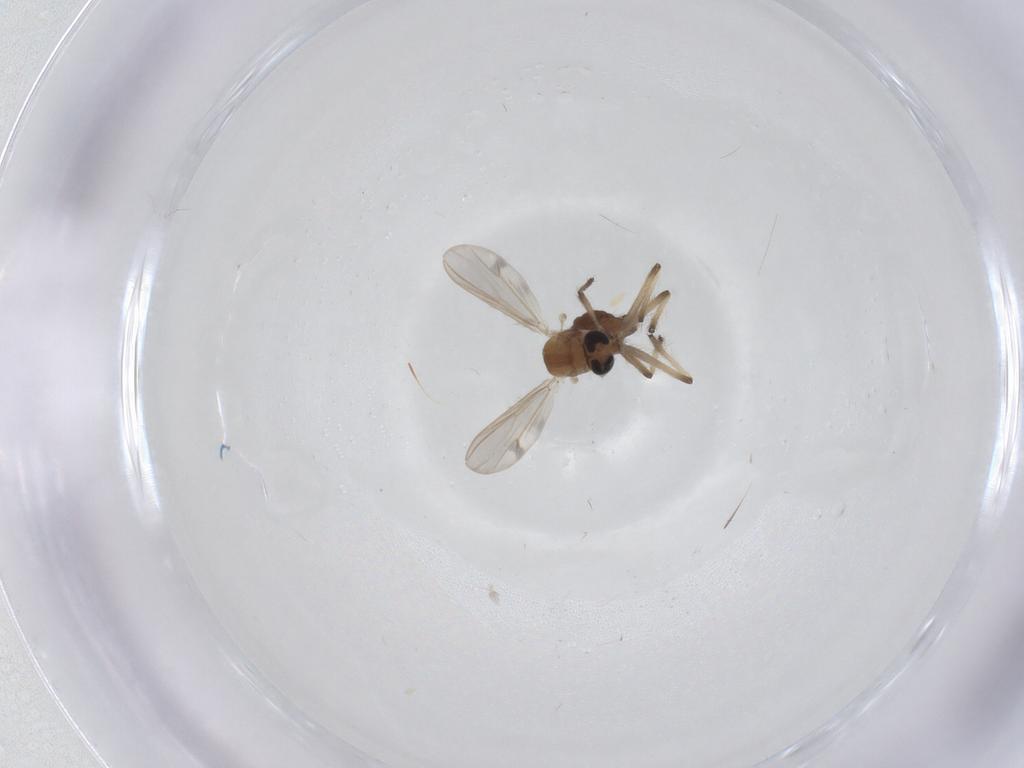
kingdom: Animalia
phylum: Arthropoda
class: Insecta
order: Diptera
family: Chironomidae
